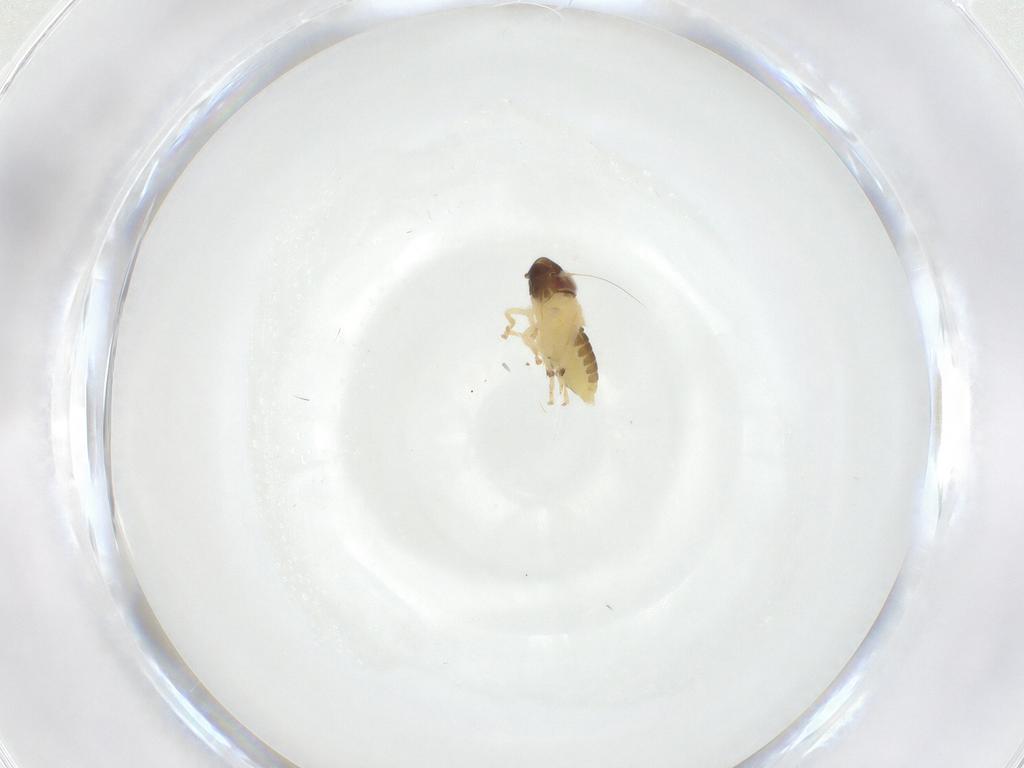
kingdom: Animalia
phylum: Arthropoda
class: Insecta
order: Hemiptera
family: Cicadellidae
